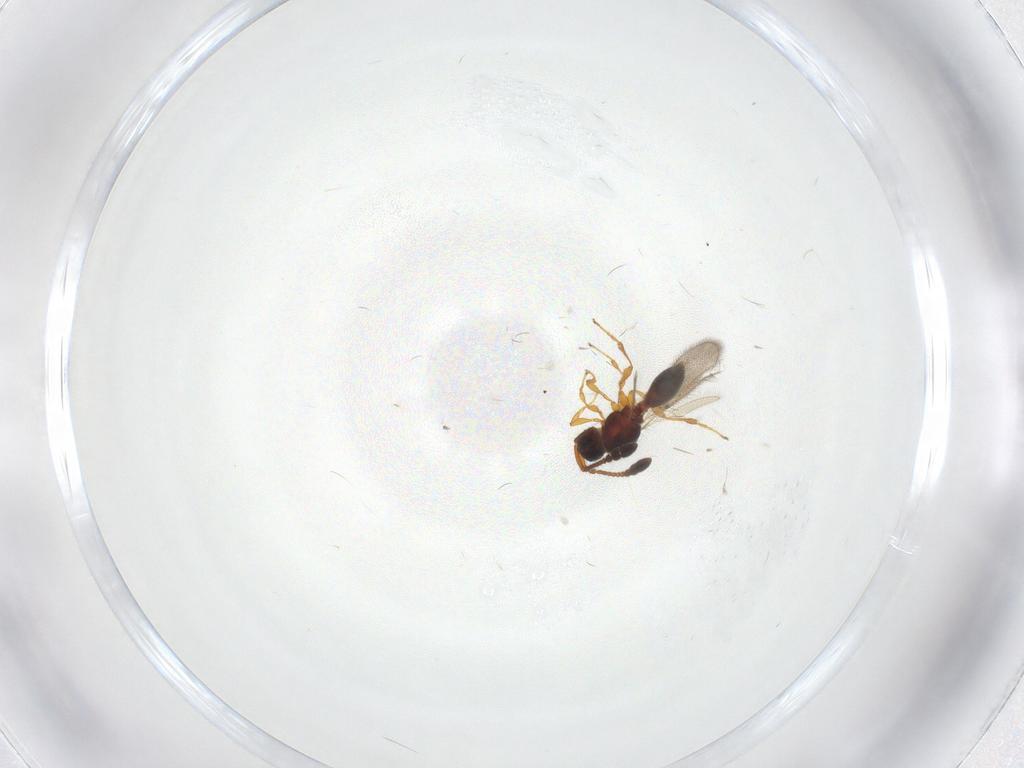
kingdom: Animalia
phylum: Arthropoda
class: Insecta
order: Hymenoptera
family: Diapriidae
